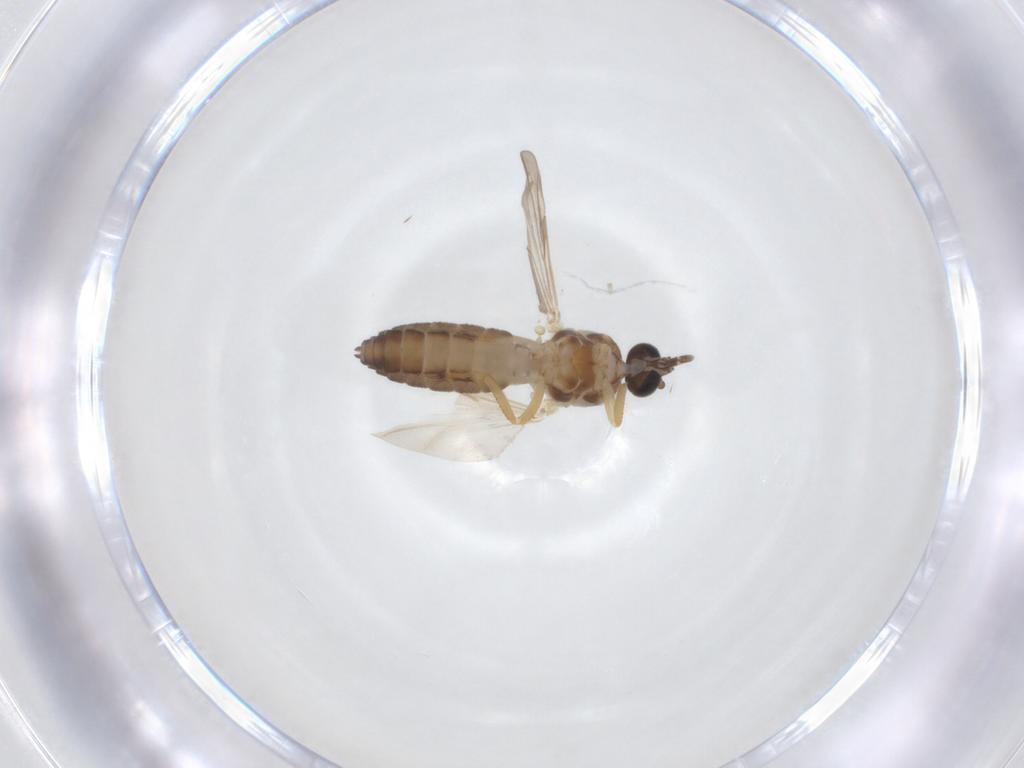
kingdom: Animalia
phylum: Arthropoda
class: Insecta
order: Diptera
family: Ceratopogonidae
